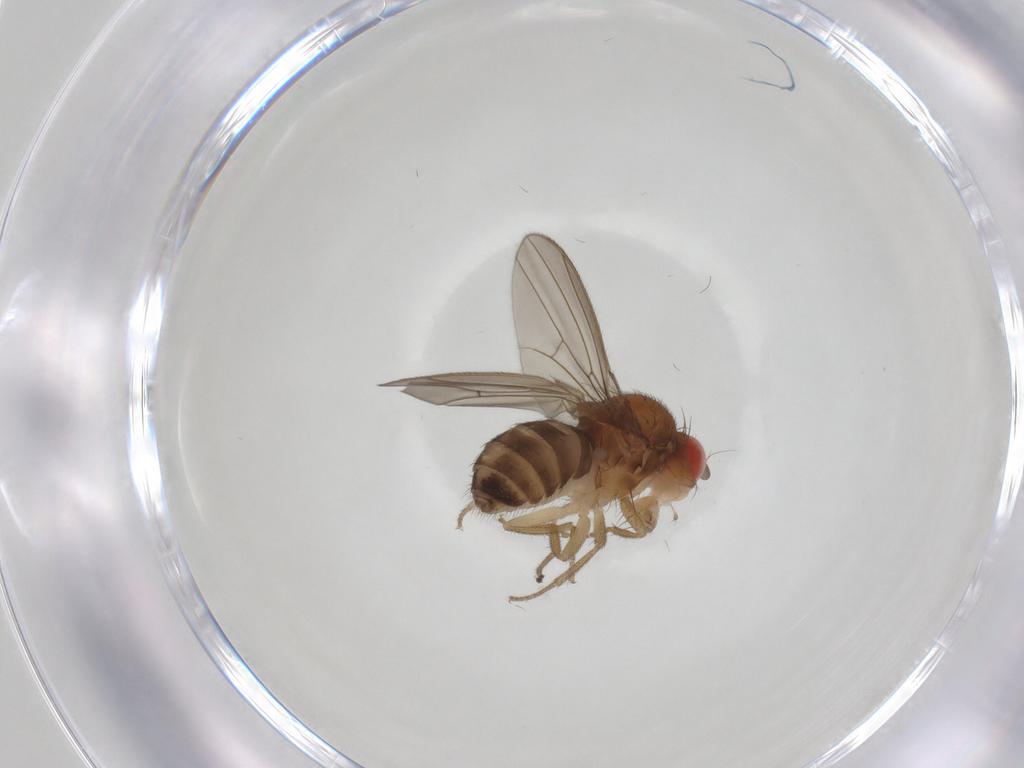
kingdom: Animalia
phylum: Arthropoda
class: Insecta
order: Diptera
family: Drosophilidae
